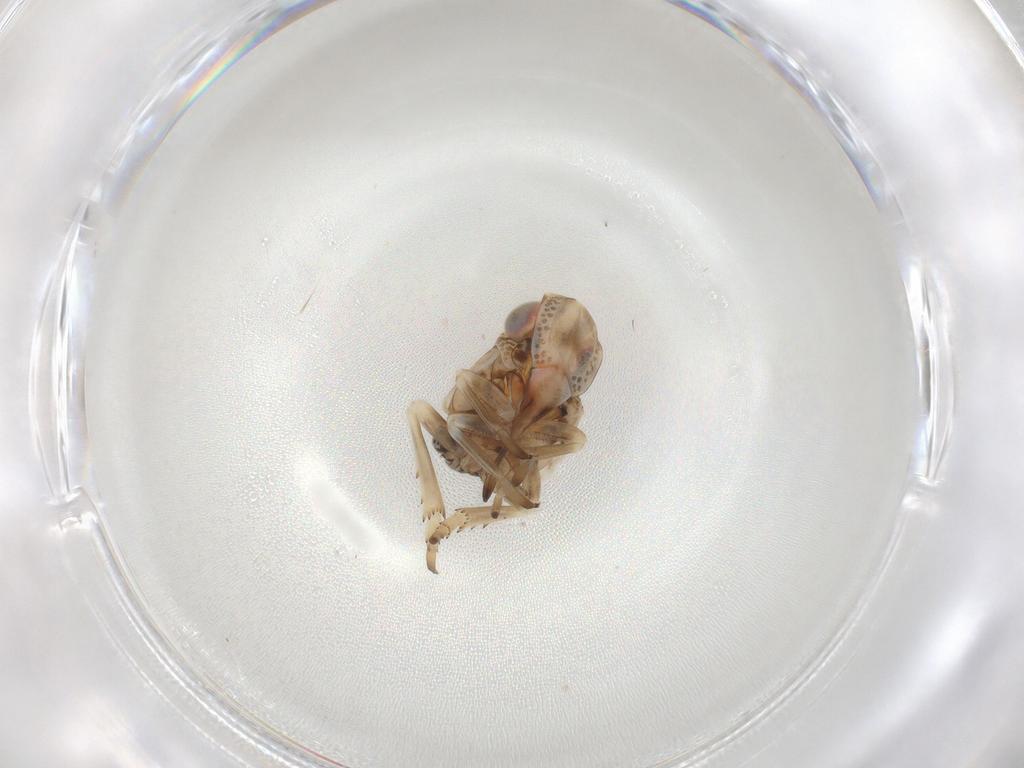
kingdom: Animalia
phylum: Arthropoda
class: Insecta
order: Hemiptera
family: Fulgoroidea_incertae_sedis
